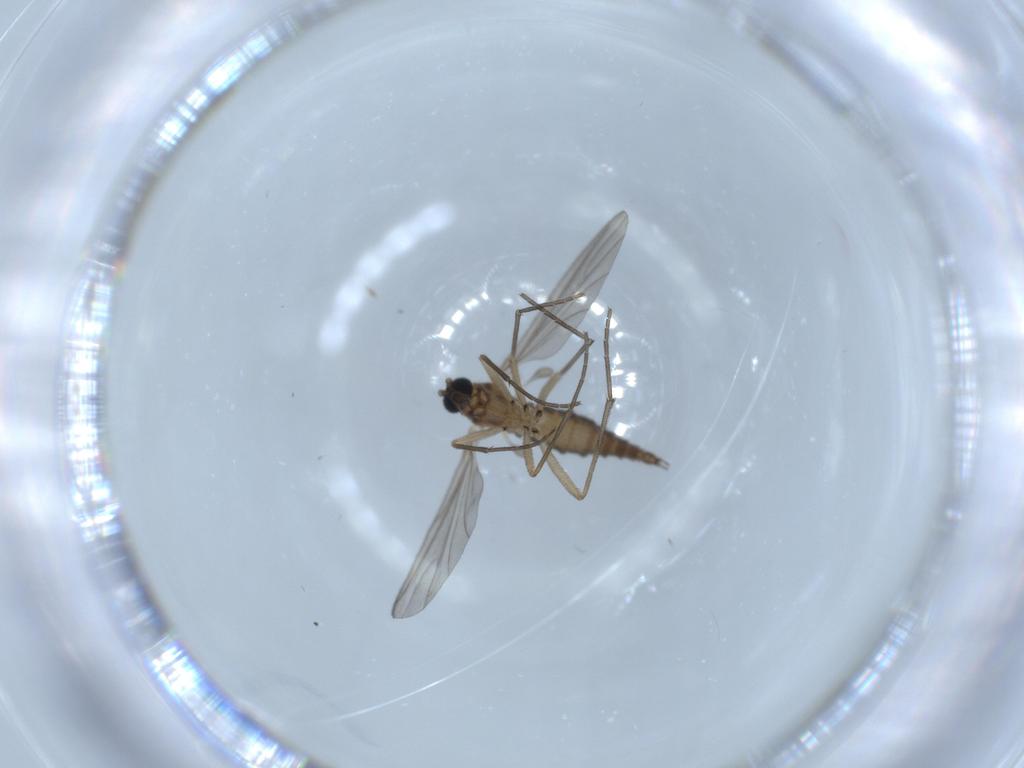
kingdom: Animalia
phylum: Arthropoda
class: Insecta
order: Diptera
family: Sciaridae
